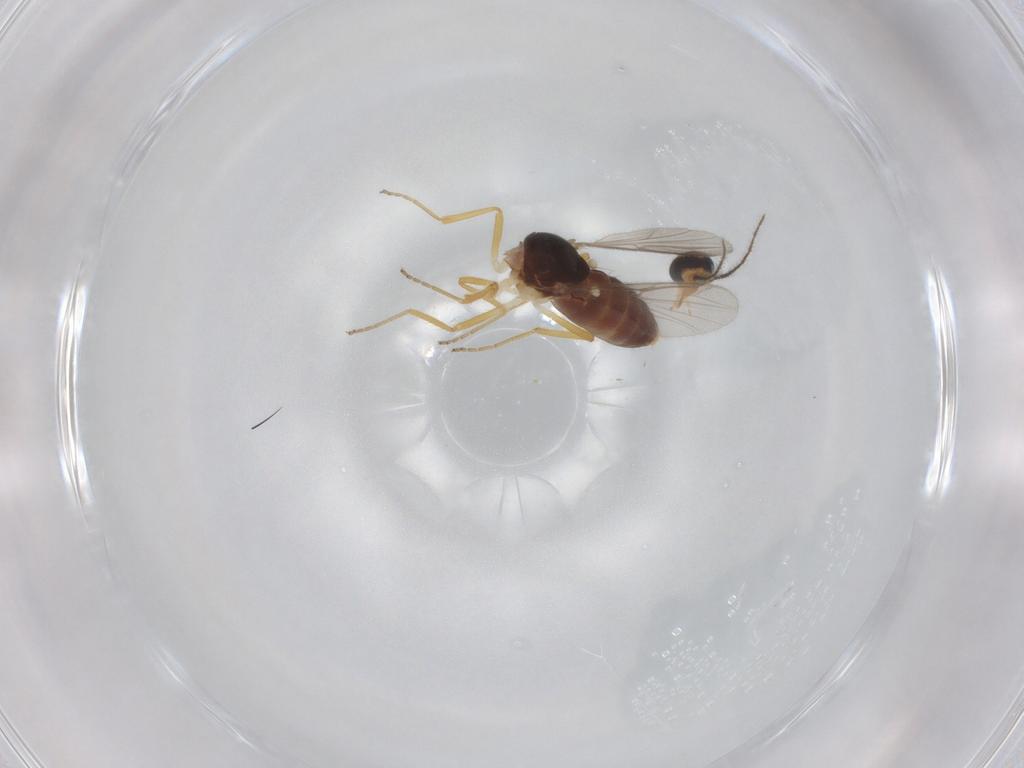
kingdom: Animalia
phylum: Arthropoda
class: Insecta
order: Diptera
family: Ceratopogonidae
